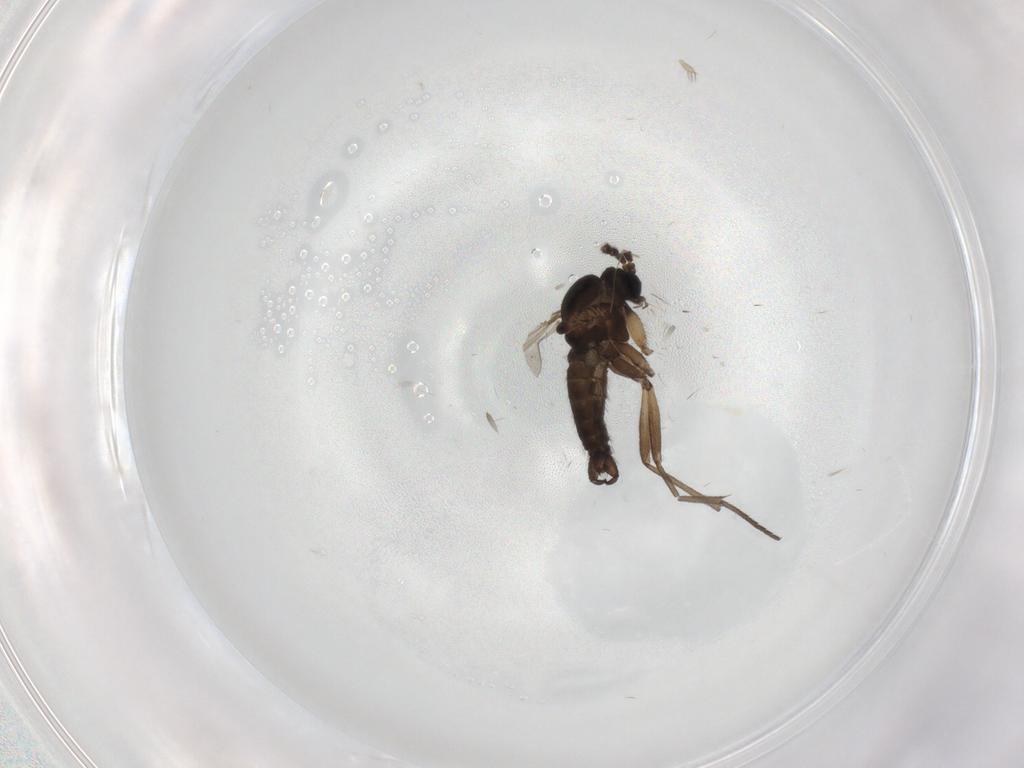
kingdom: Animalia
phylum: Arthropoda
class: Insecta
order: Diptera
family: Sciaridae
